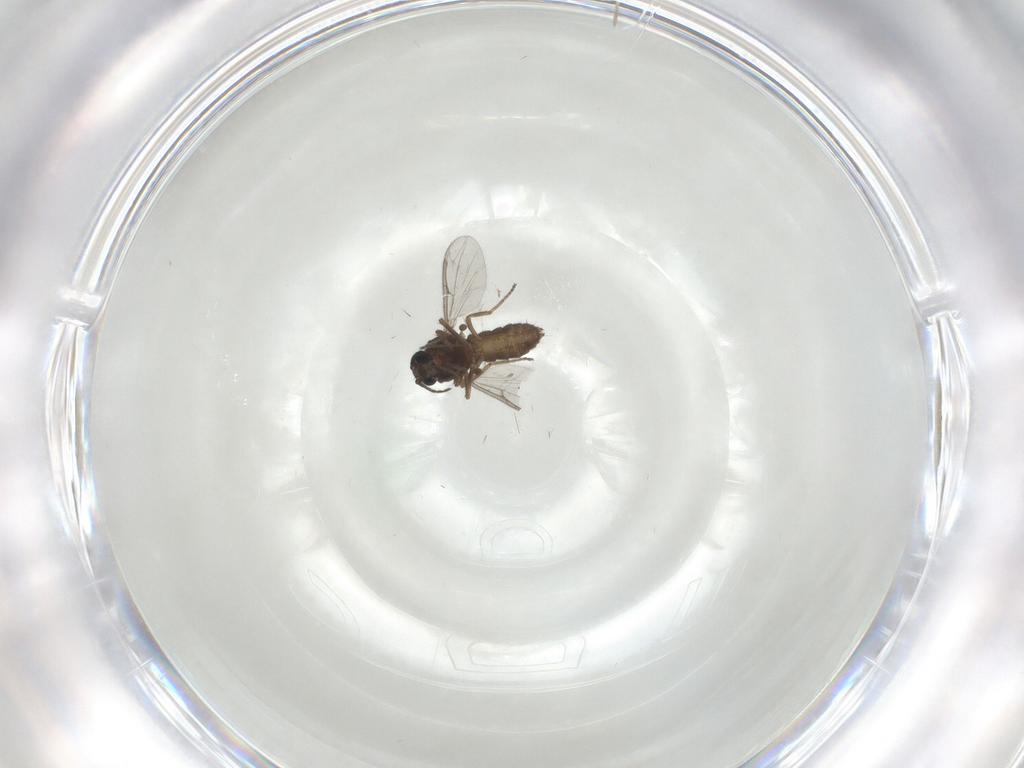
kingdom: Animalia
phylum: Arthropoda
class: Insecta
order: Diptera
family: Ceratopogonidae
